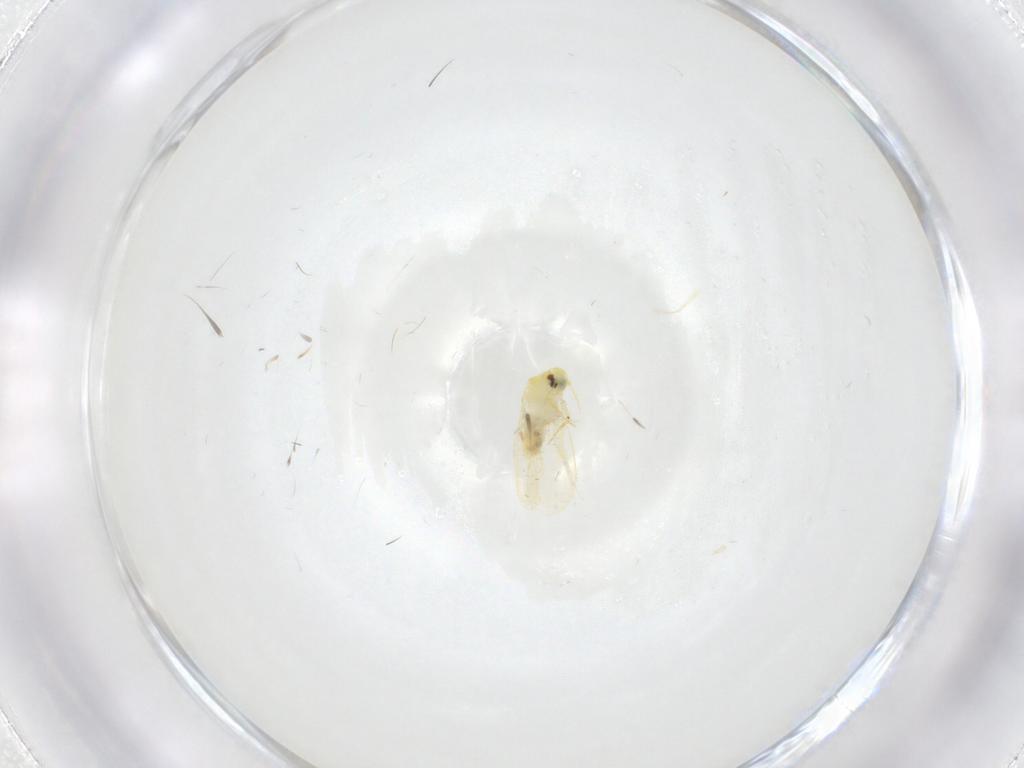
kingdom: Animalia
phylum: Arthropoda
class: Insecta
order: Hemiptera
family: Aleyrodidae
